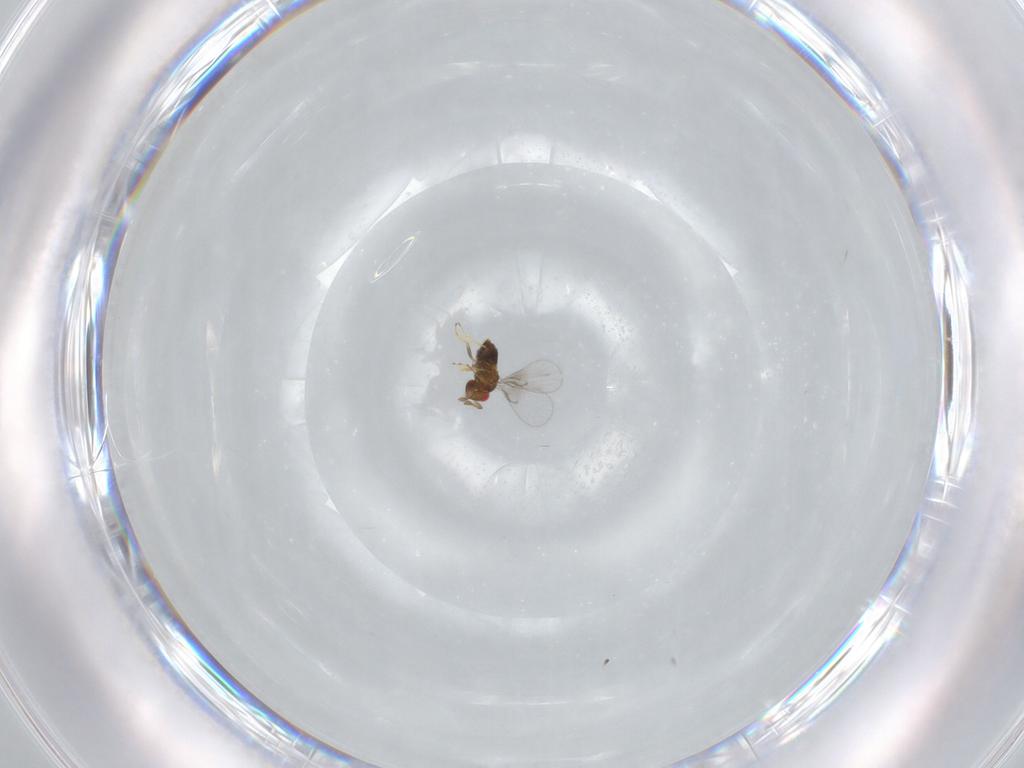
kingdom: Animalia
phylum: Arthropoda
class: Insecta
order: Hymenoptera
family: Trichogrammatidae
